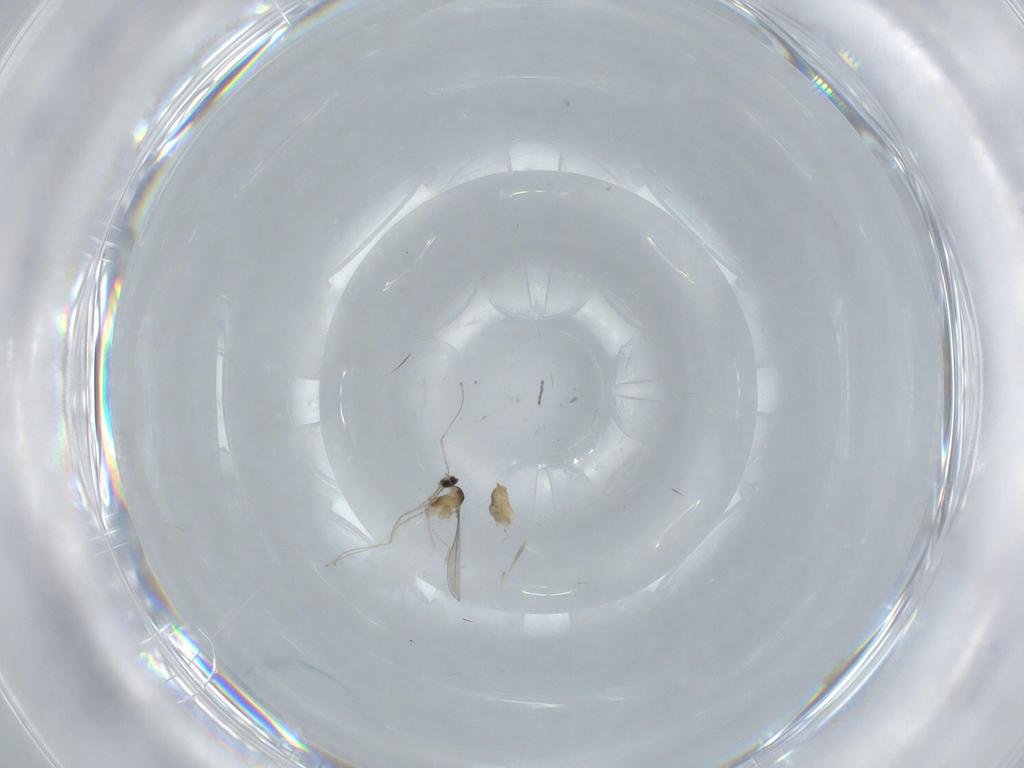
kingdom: Animalia
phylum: Arthropoda
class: Insecta
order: Diptera
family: Cecidomyiidae
